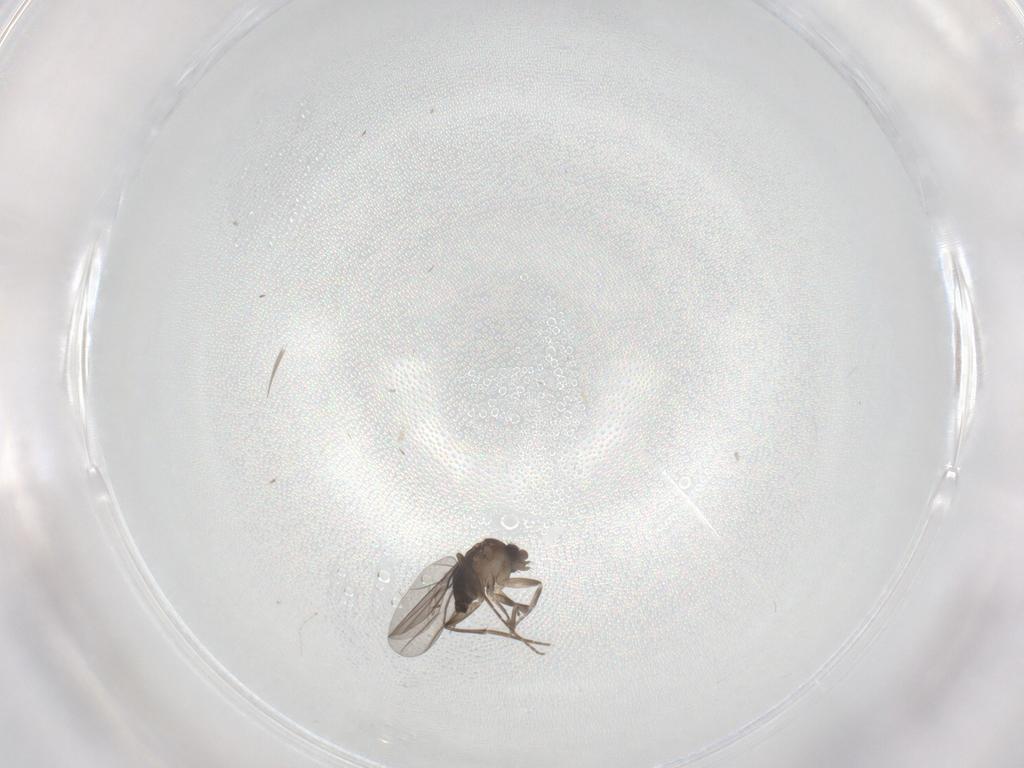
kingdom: Animalia
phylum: Arthropoda
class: Insecta
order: Diptera
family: Cecidomyiidae
